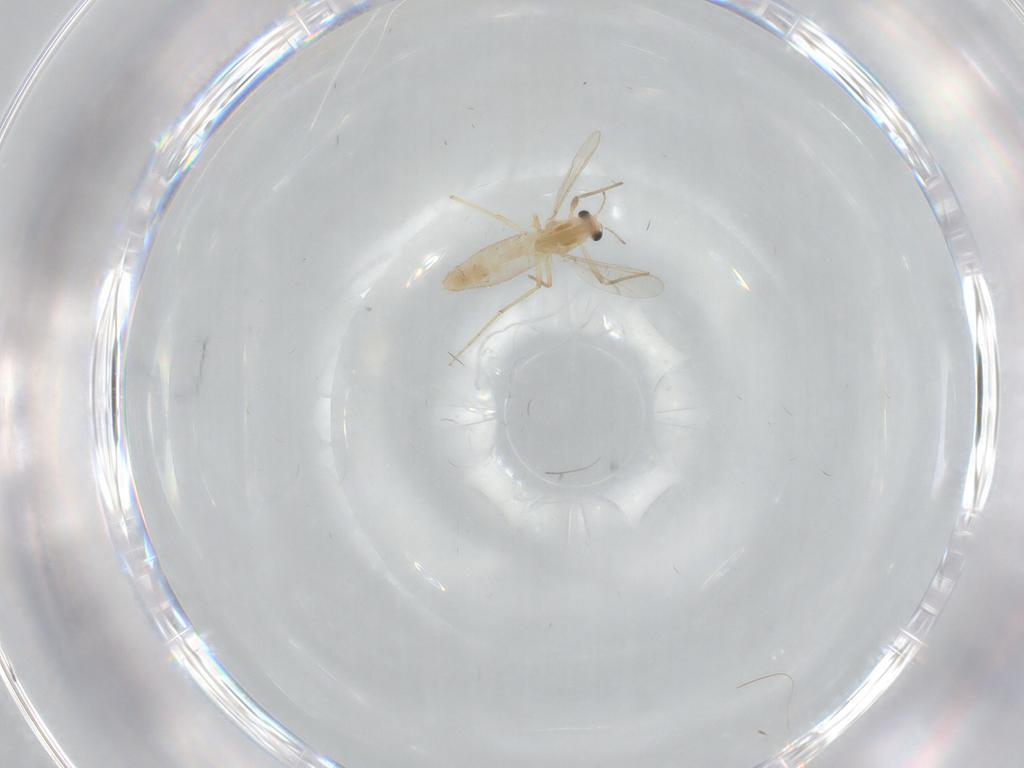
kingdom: Animalia
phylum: Arthropoda
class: Insecta
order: Diptera
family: Chironomidae
